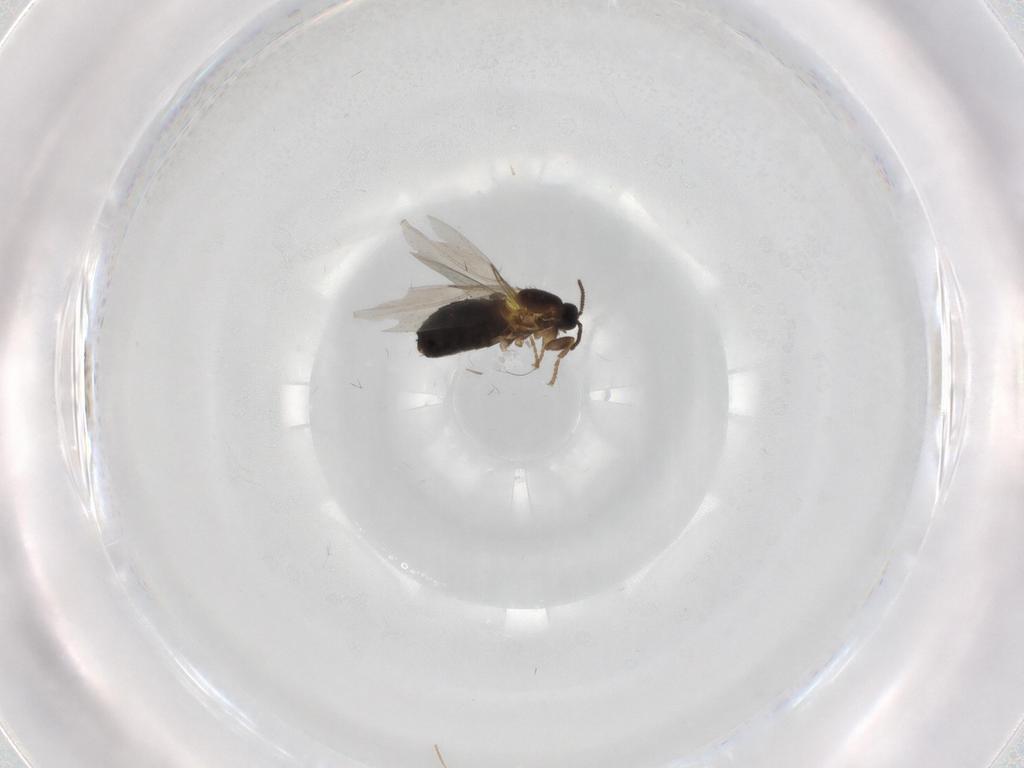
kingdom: Animalia
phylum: Arthropoda
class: Insecta
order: Diptera
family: Scatopsidae
